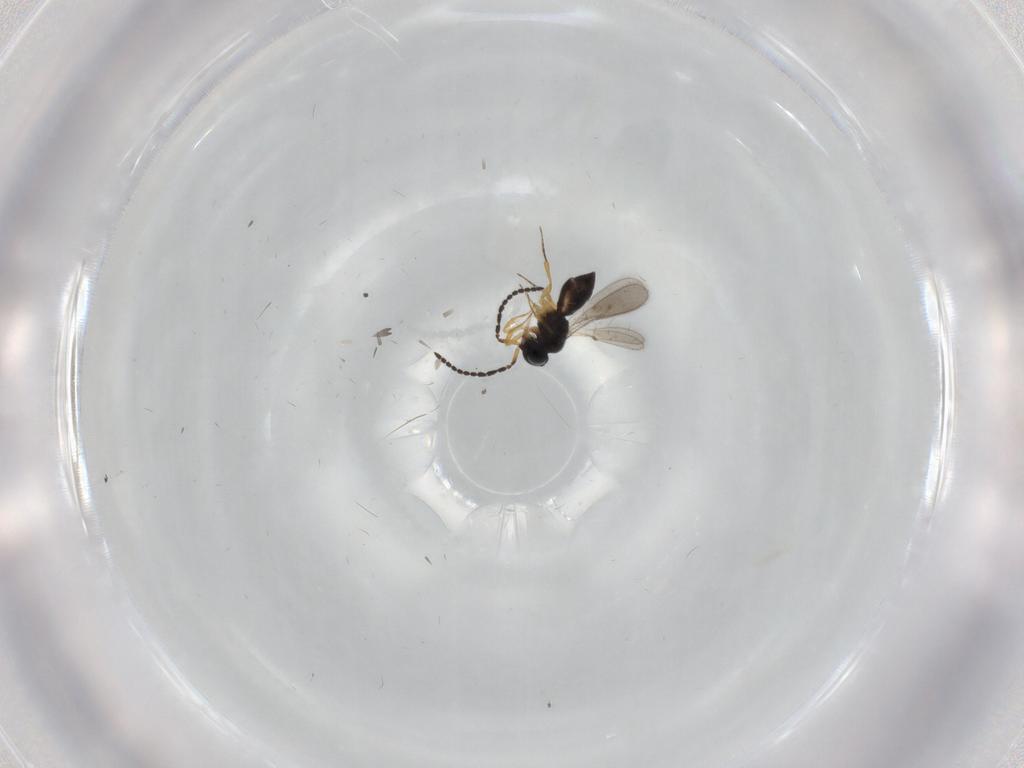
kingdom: Animalia
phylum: Arthropoda
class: Insecta
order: Hymenoptera
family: Scelionidae
